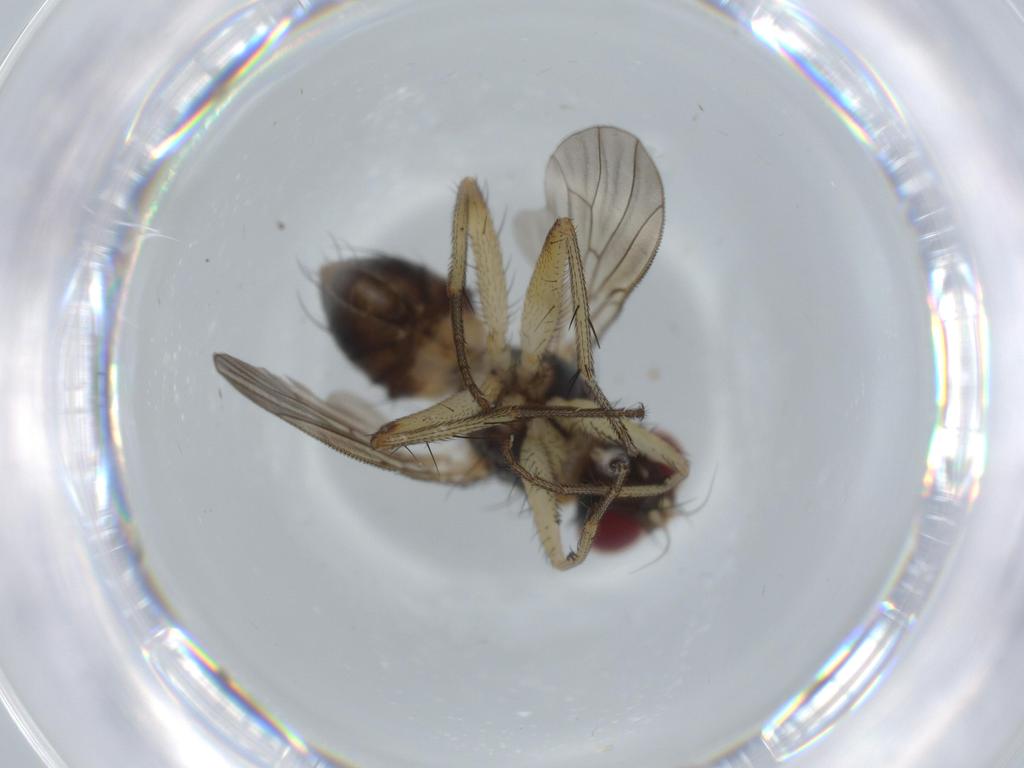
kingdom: Animalia
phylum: Arthropoda
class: Insecta
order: Diptera
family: Muscidae
